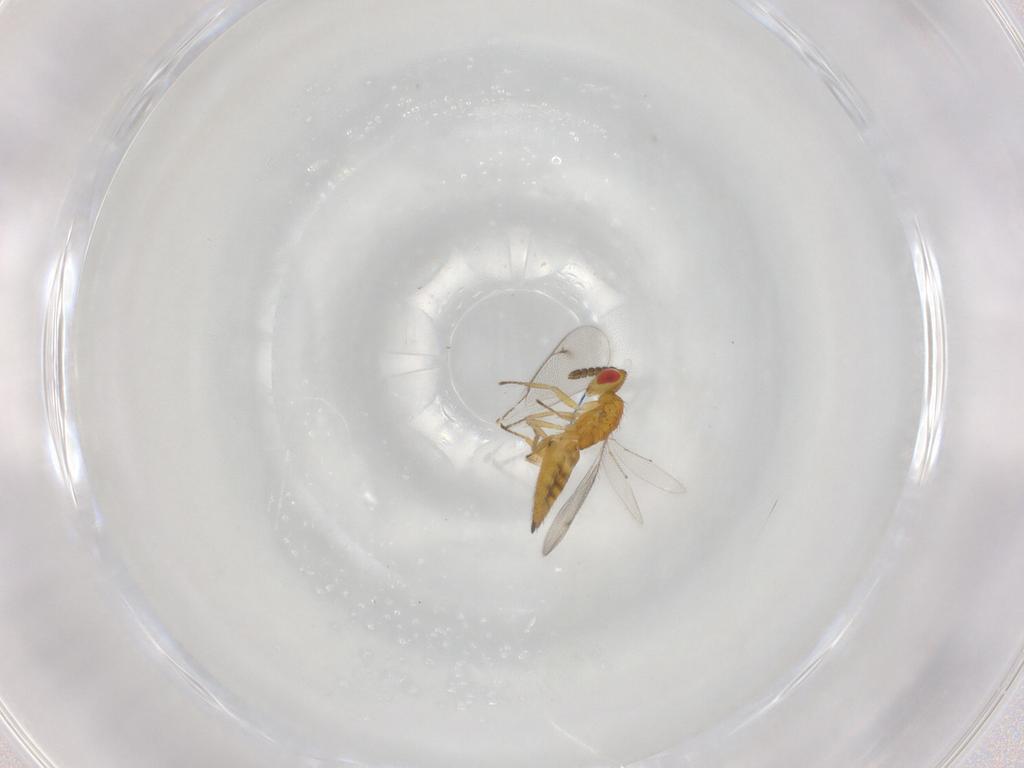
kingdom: Animalia
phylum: Arthropoda
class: Insecta
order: Hymenoptera
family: Eulophidae
